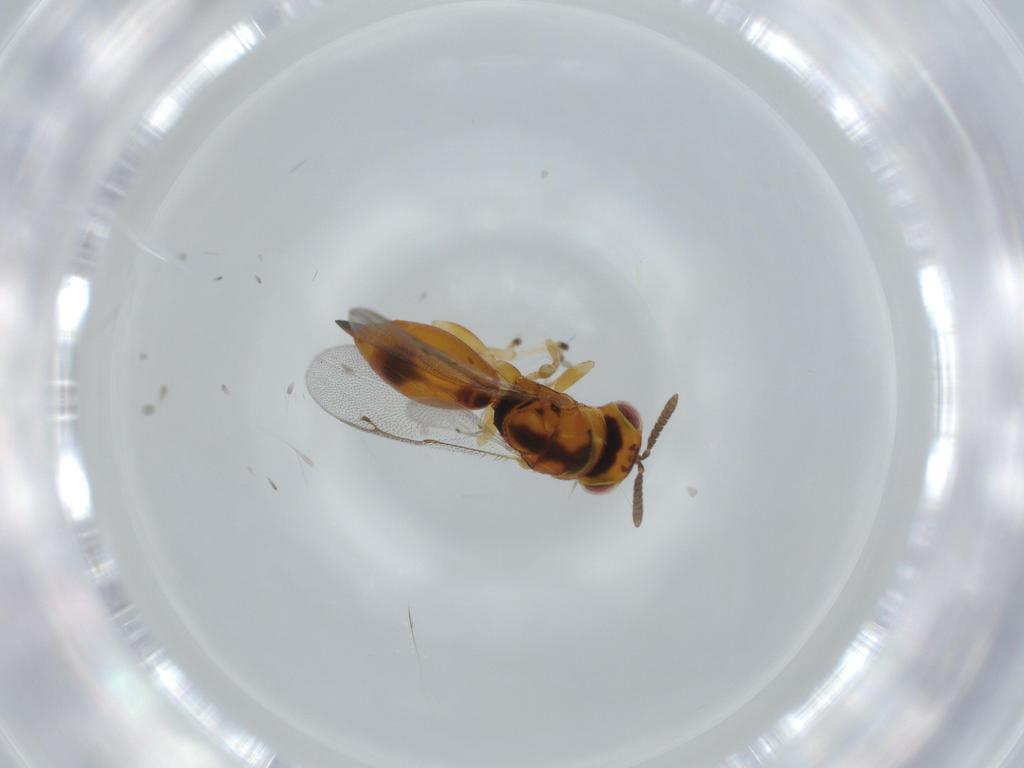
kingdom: Animalia
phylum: Arthropoda
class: Insecta
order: Hymenoptera
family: Eurytomidae
